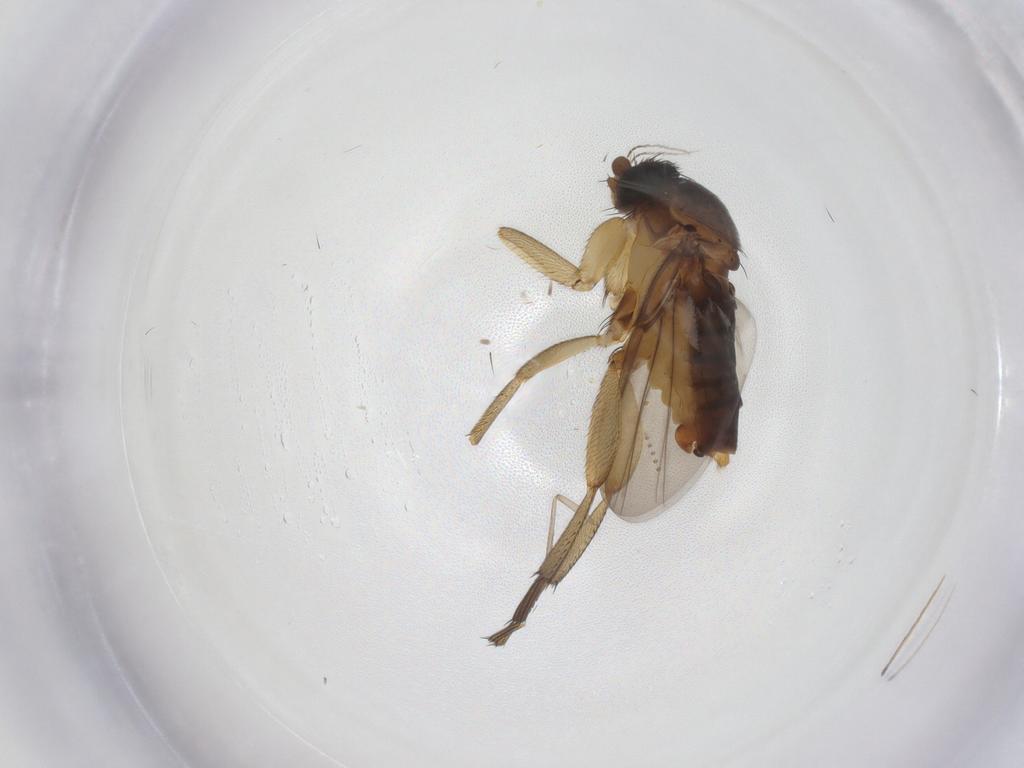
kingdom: Animalia
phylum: Arthropoda
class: Insecta
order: Diptera
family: Phoridae
